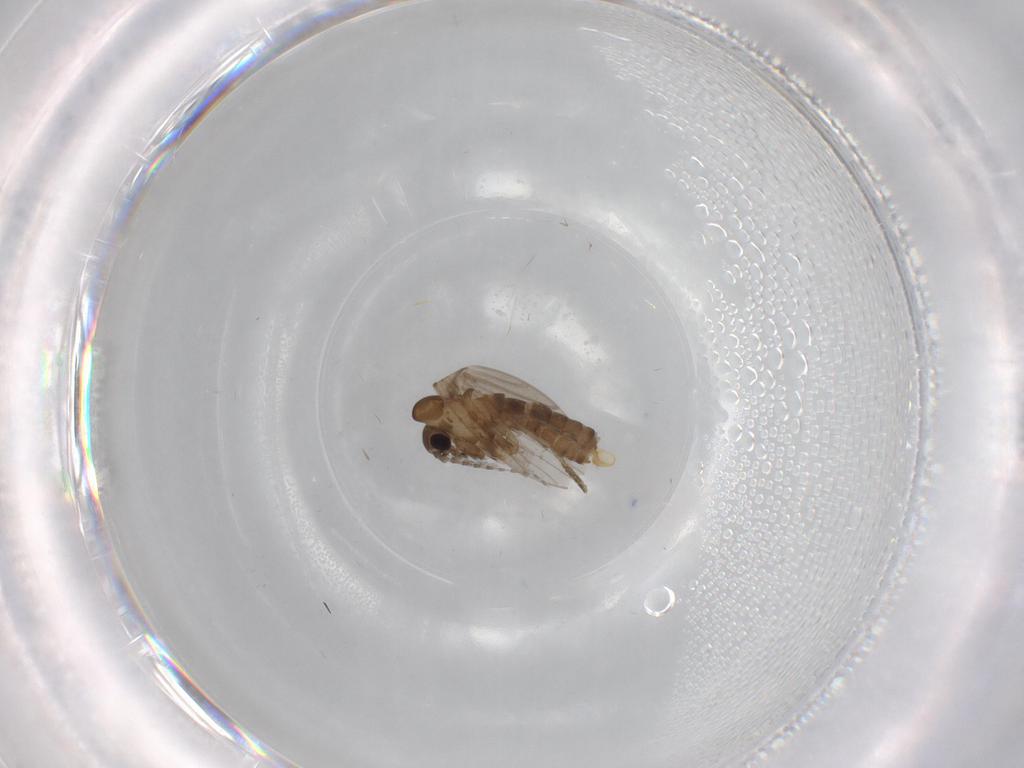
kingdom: Animalia
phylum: Arthropoda
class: Insecta
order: Diptera
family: Psychodidae
